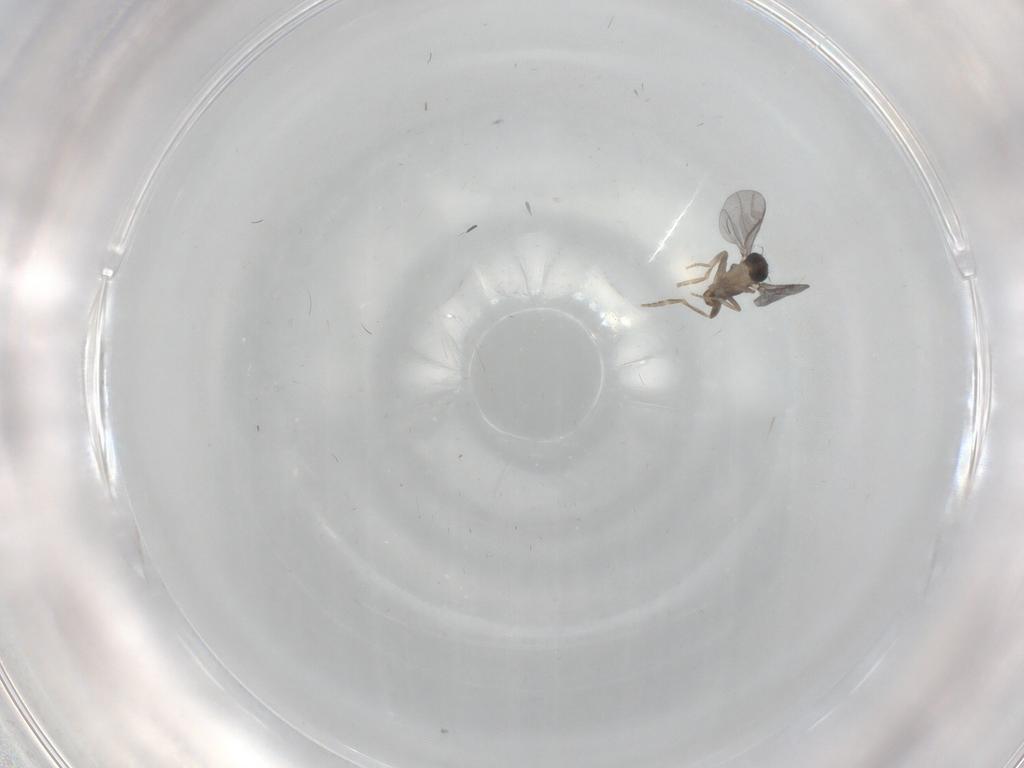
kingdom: Animalia
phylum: Arthropoda
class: Insecta
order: Diptera
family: Phoridae
